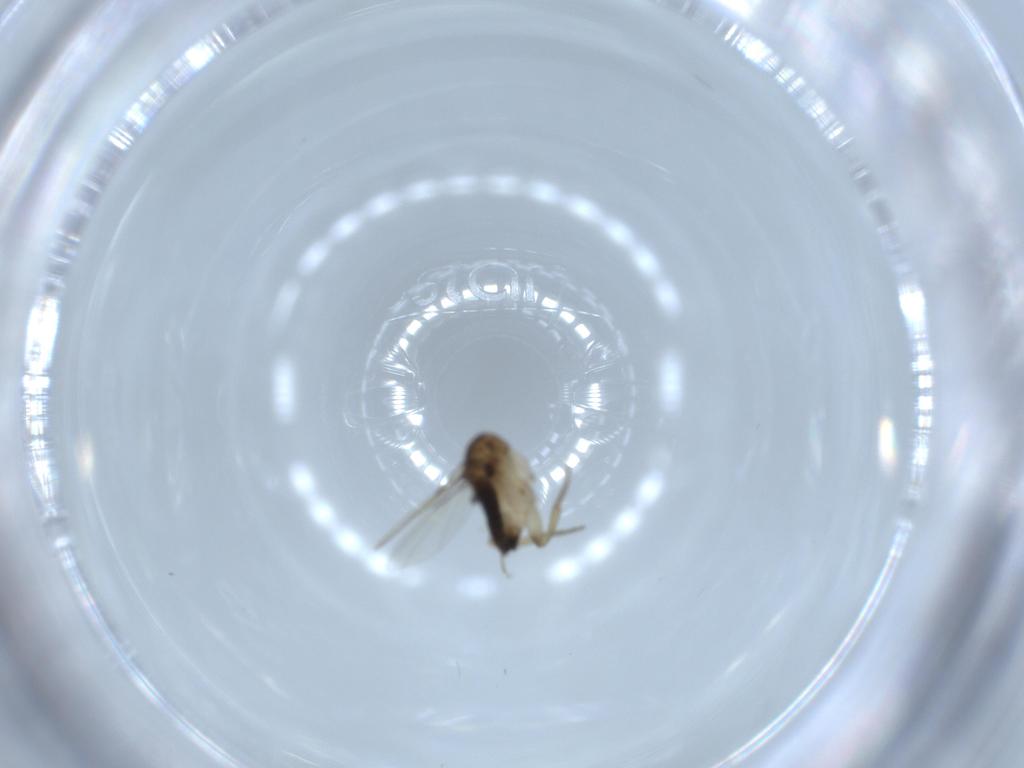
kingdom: Animalia
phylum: Arthropoda
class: Insecta
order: Diptera
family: Phoridae
